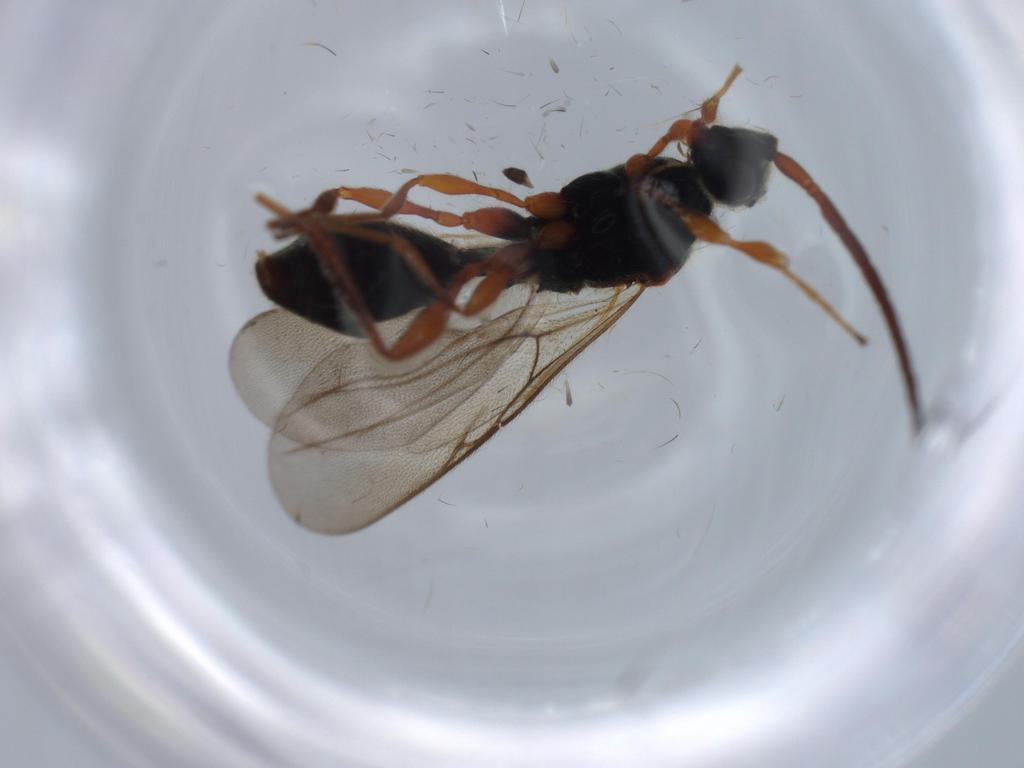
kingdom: Animalia
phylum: Arthropoda
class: Insecta
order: Hymenoptera
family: Diapriidae
